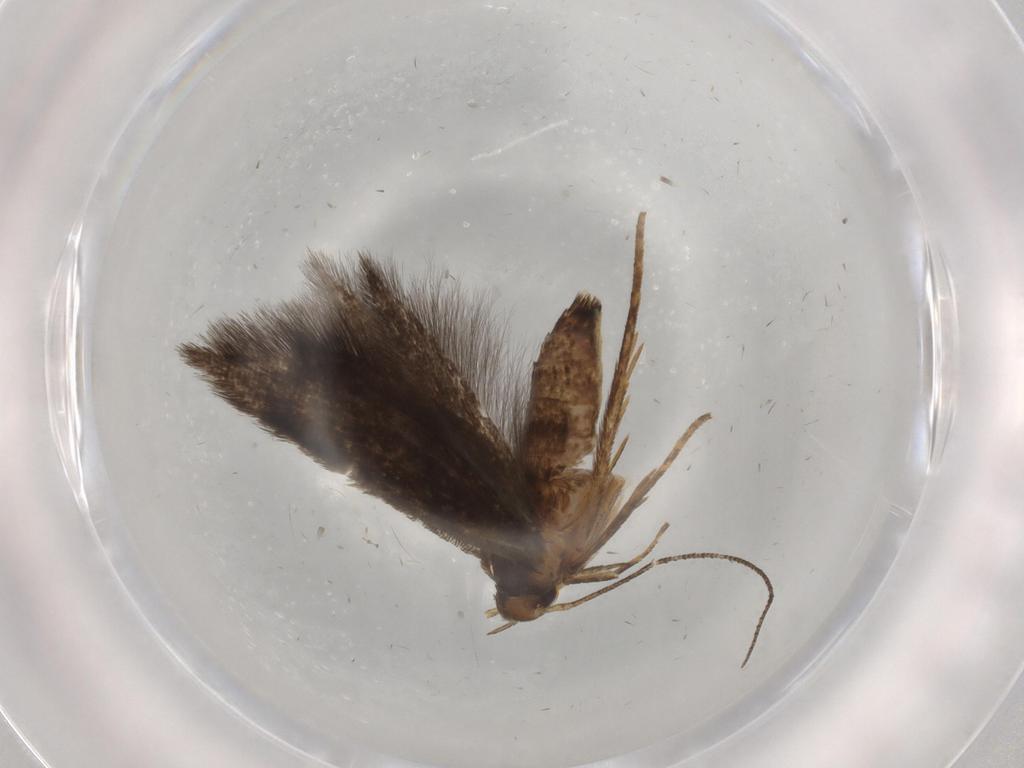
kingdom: Animalia
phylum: Arthropoda
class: Insecta
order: Lepidoptera
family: Cosmopterigidae
